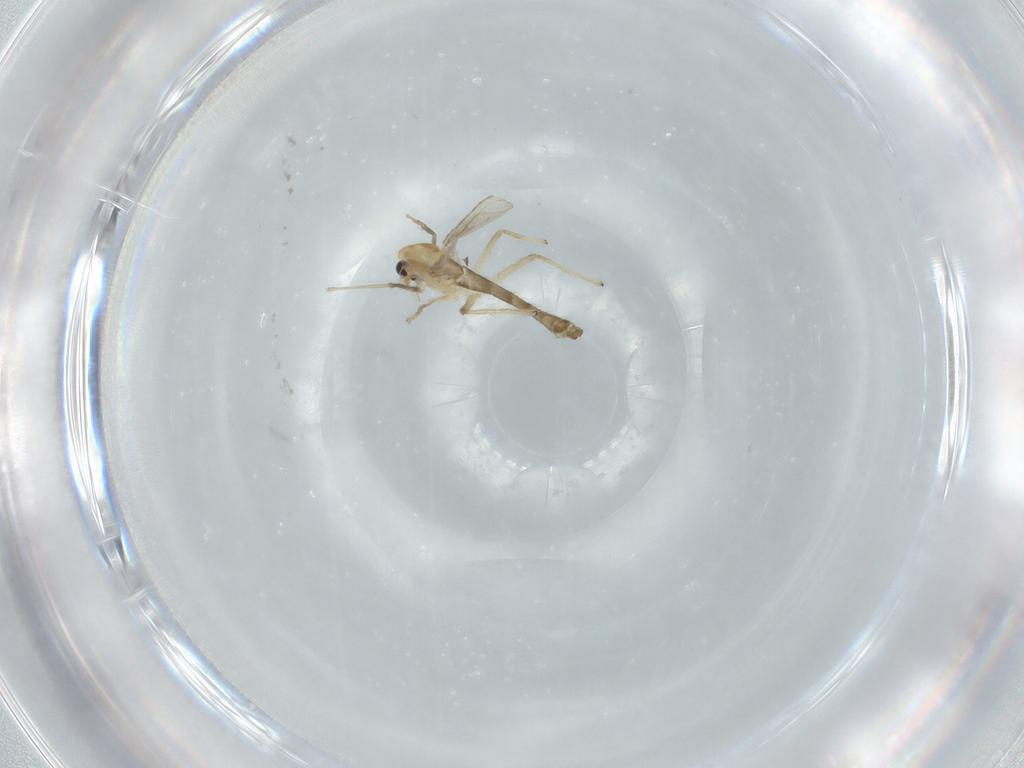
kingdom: Animalia
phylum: Arthropoda
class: Insecta
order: Diptera
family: Chironomidae
